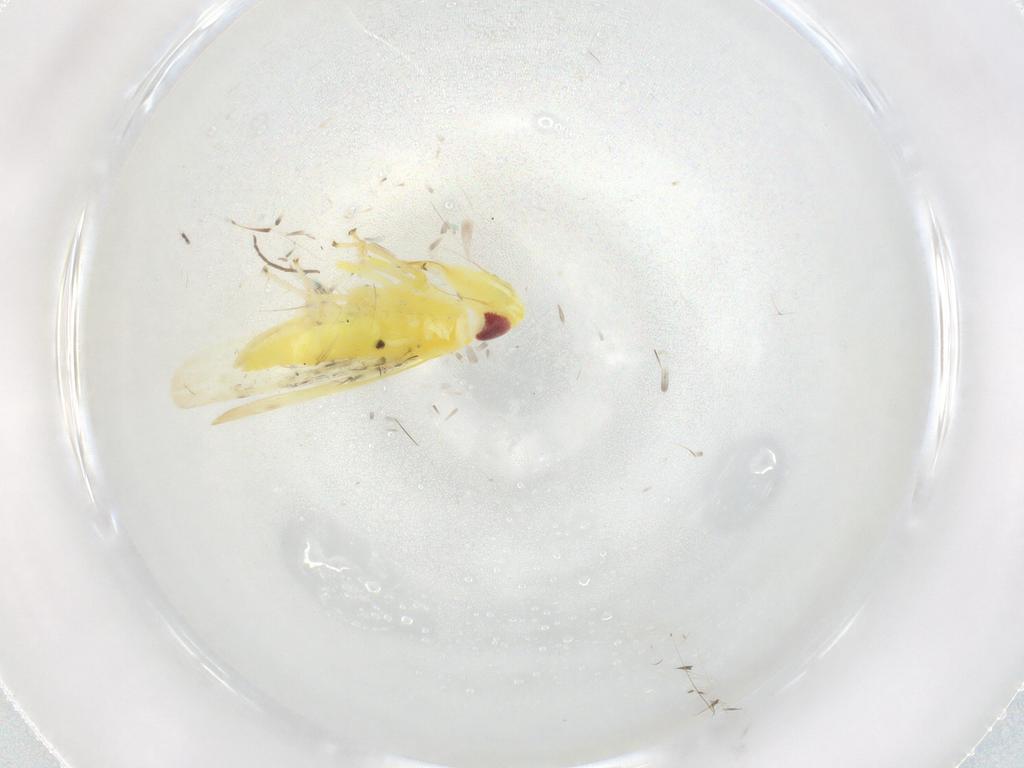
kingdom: Animalia
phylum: Arthropoda
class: Insecta
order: Hemiptera
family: Cicadellidae
